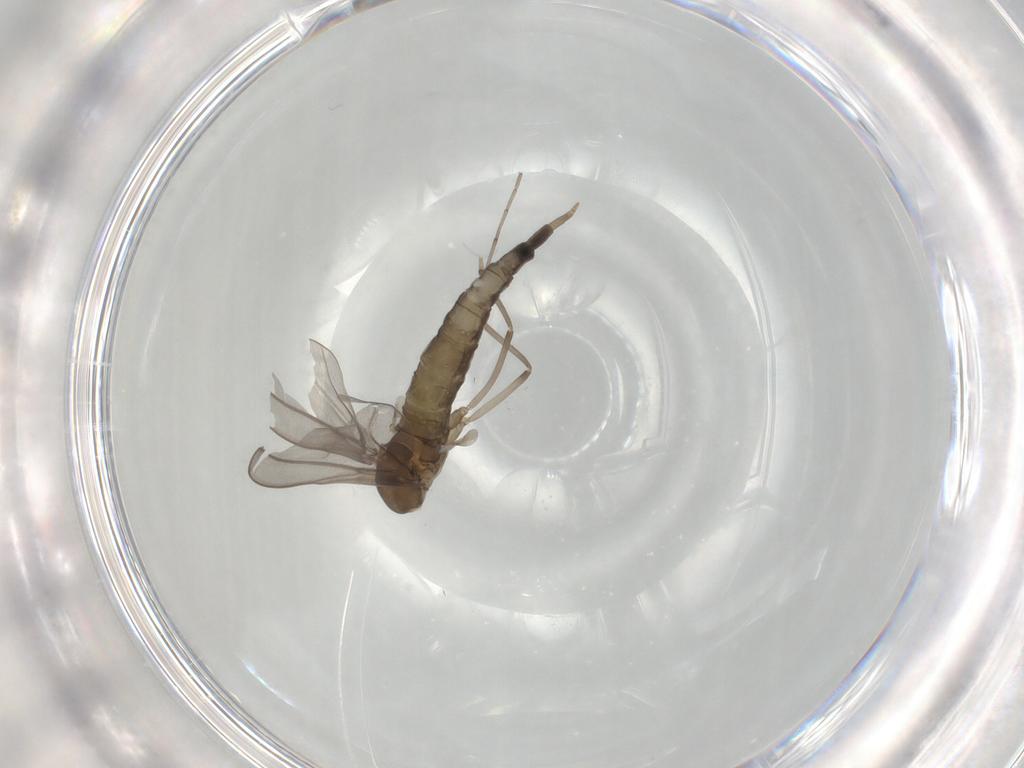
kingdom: Animalia
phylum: Arthropoda
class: Insecta
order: Diptera
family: Cecidomyiidae
